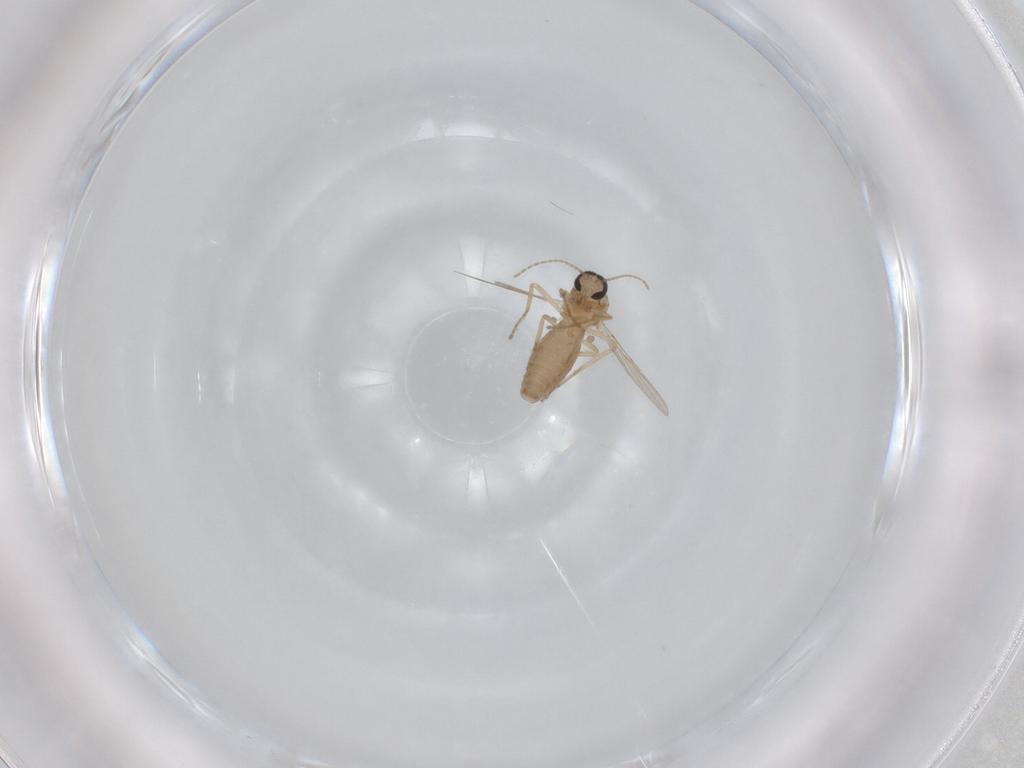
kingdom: Animalia
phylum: Arthropoda
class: Insecta
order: Diptera
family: Ceratopogonidae
